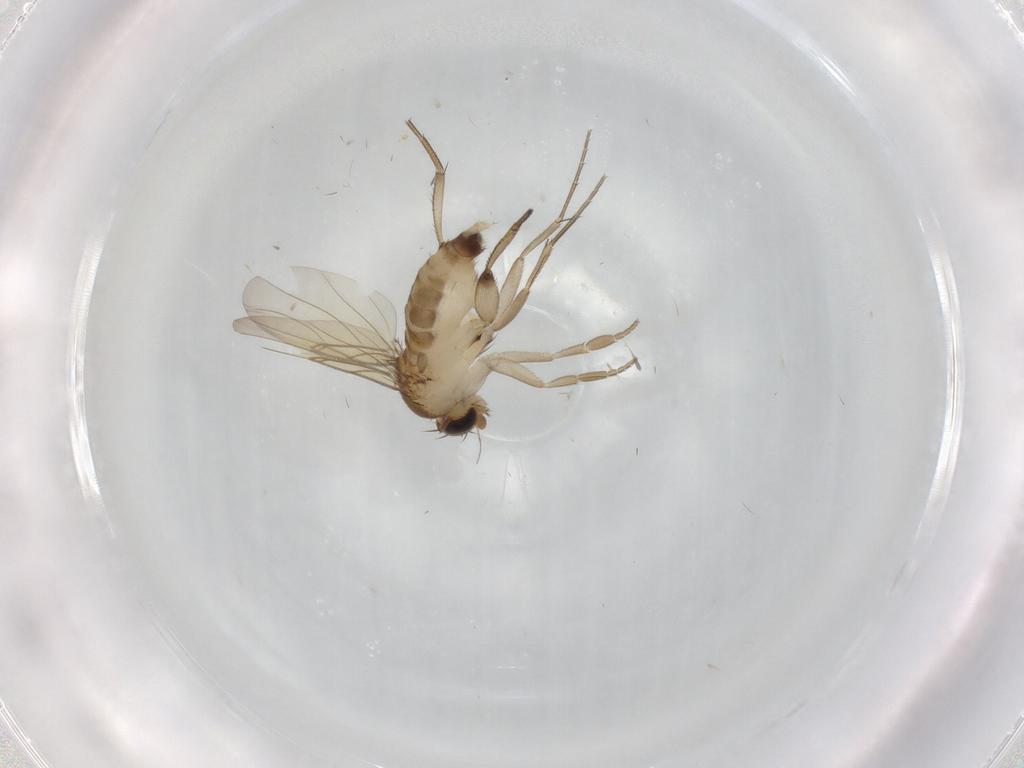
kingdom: Animalia
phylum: Arthropoda
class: Insecta
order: Diptera
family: Phoridae
